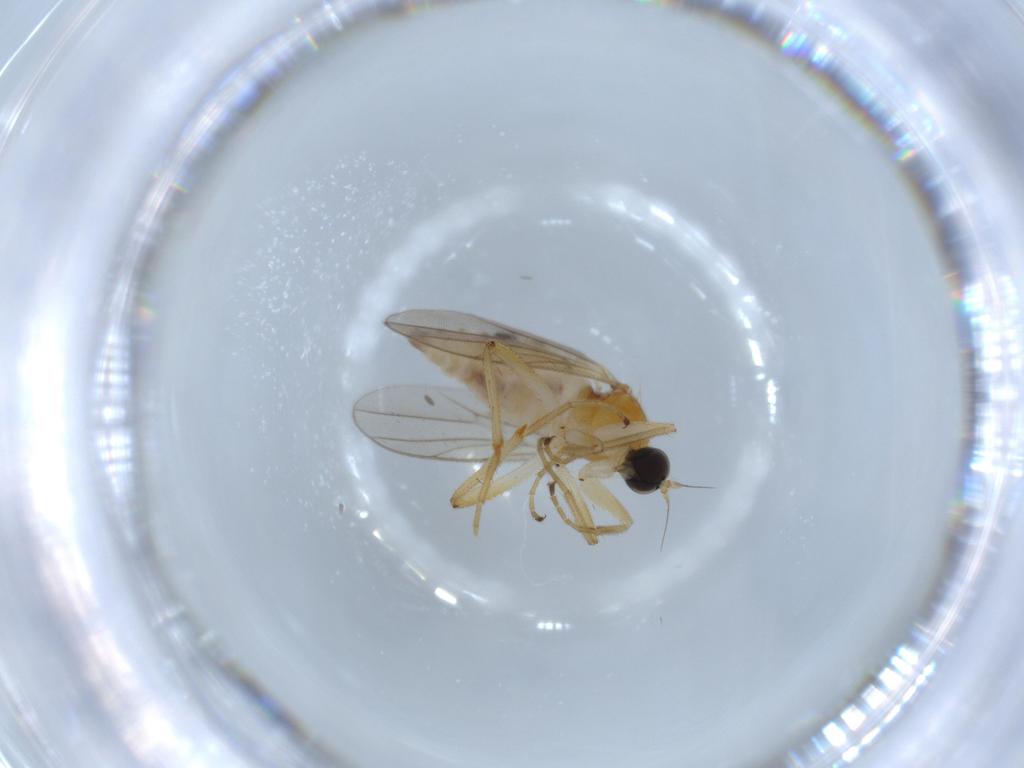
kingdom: Animalia
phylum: Arthropoda
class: Insecta
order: Diptera
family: Hybotidae
